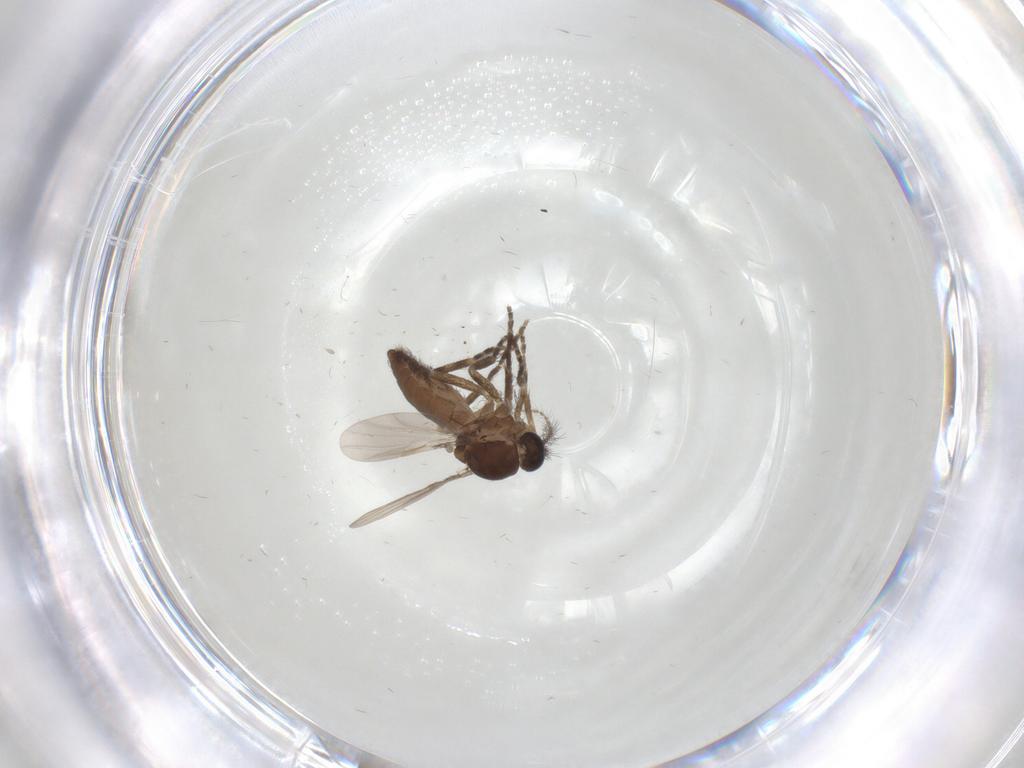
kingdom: Animalia
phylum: Arthropoda
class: Insecta
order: Diptera
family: Ceratopogonidae
